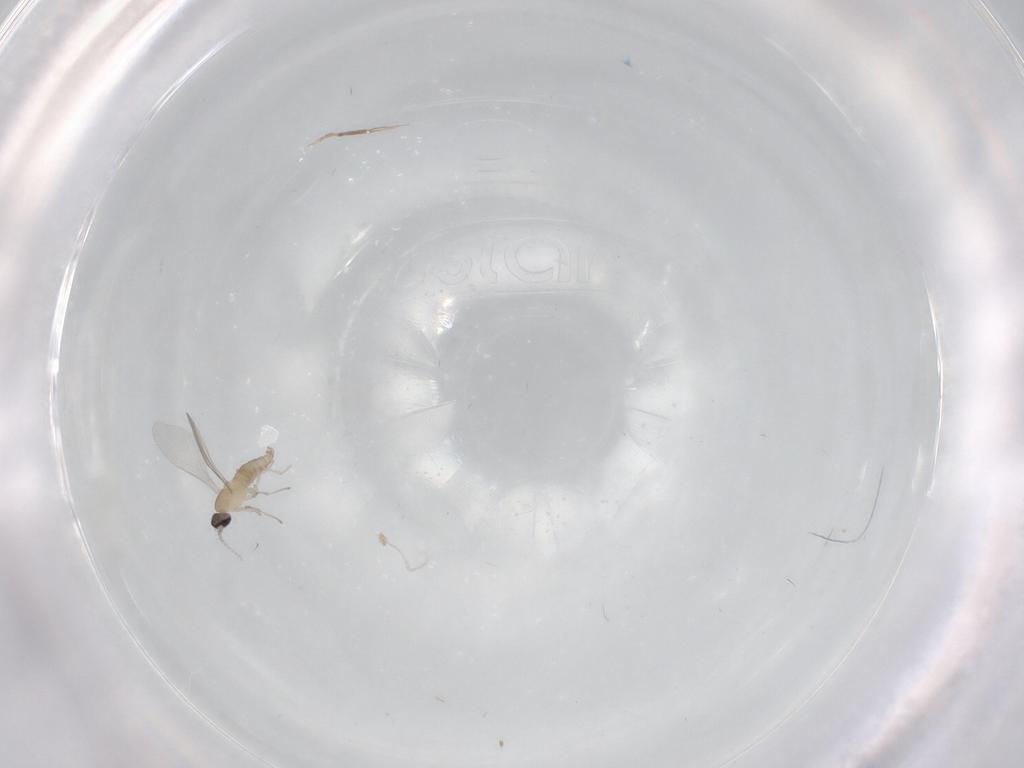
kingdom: Animalia
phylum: Arthropoda
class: Insecta
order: Diptera
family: Cecidomyiidae
